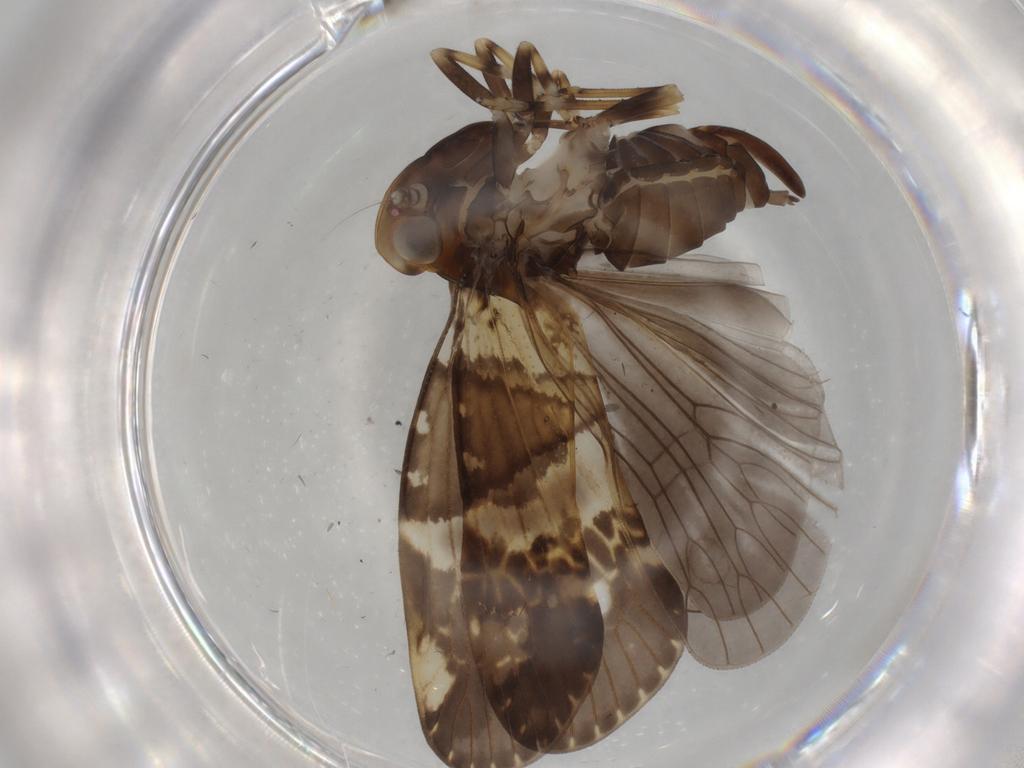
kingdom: Animalia
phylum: Arthropoda
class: Insecta
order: Hemiptera
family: Cixiidae
